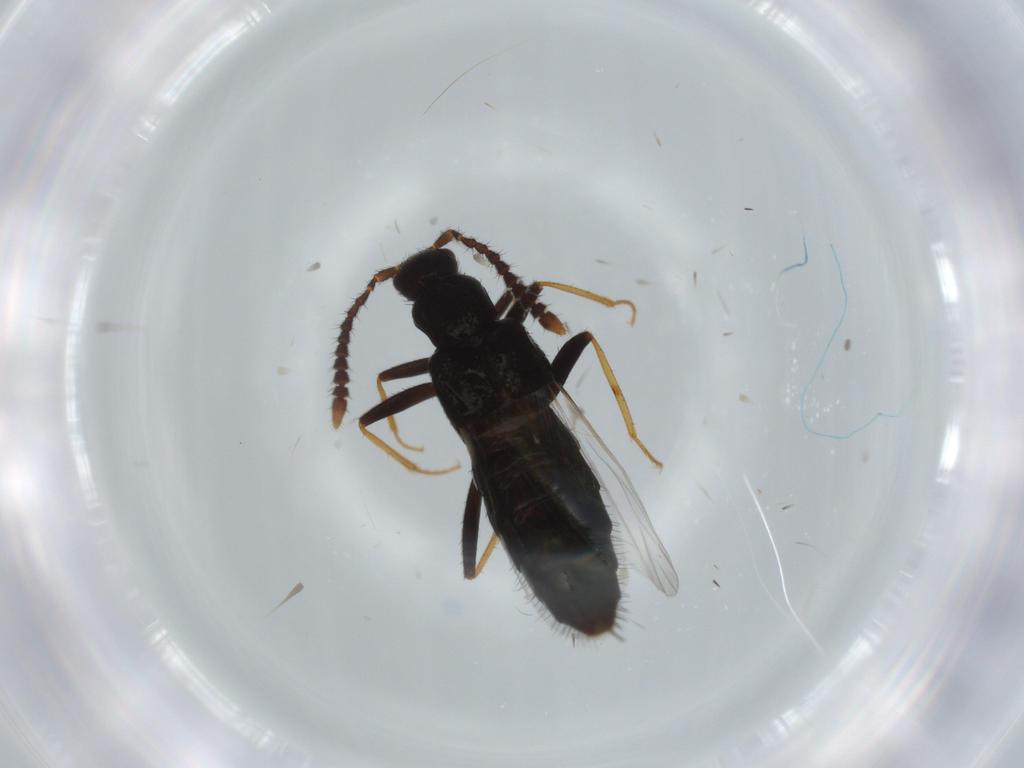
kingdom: Animalia
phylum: Arthropoda
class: Insecta
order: Coleoptera
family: Staphylinidae
